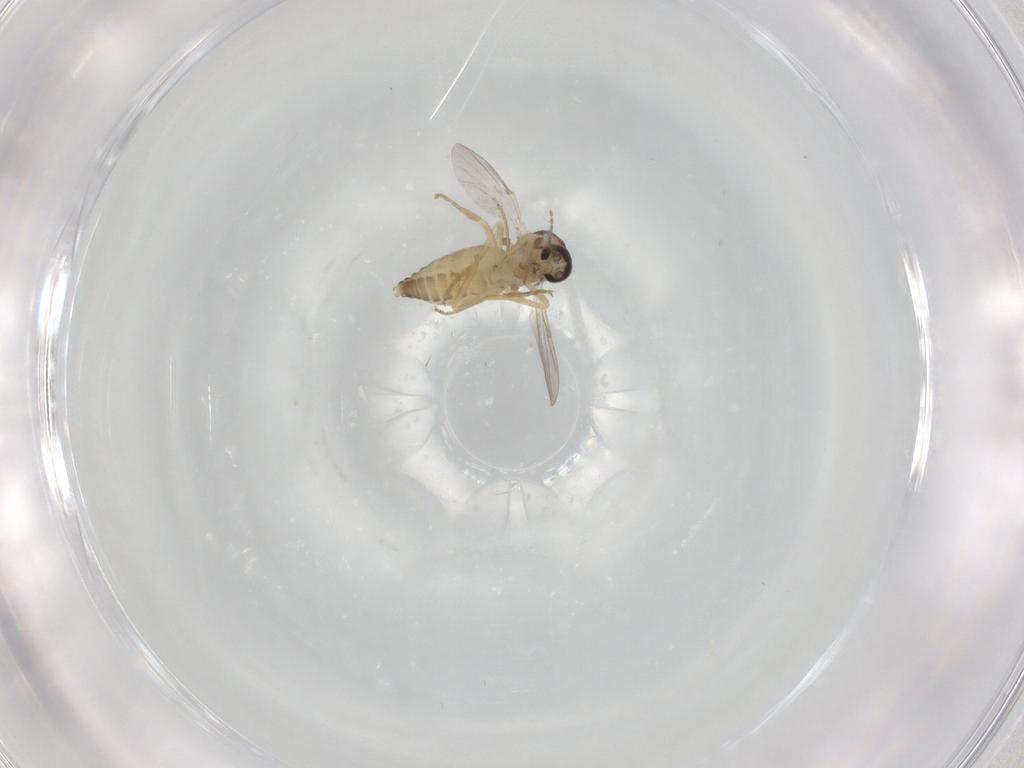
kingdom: Animalia
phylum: Arthropoda
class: Insecta
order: Diptera
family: Ceratopogonidae
